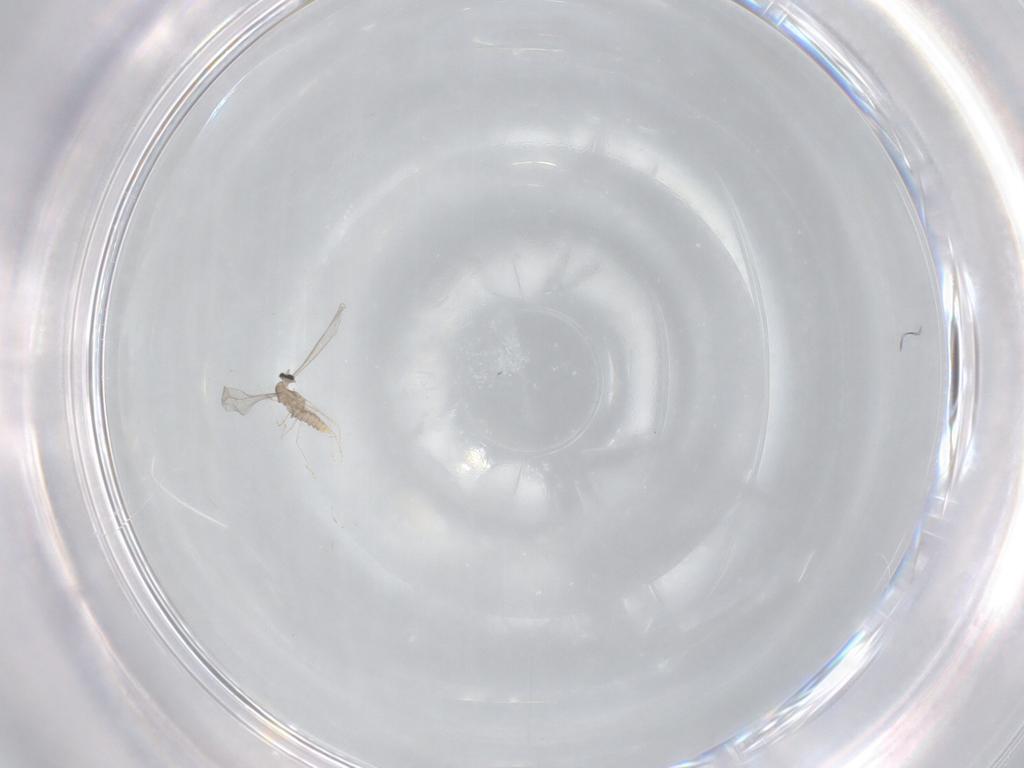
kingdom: Animalia
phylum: Arthropoda
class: Insecta
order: Diptera
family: Cecidomyiidae
